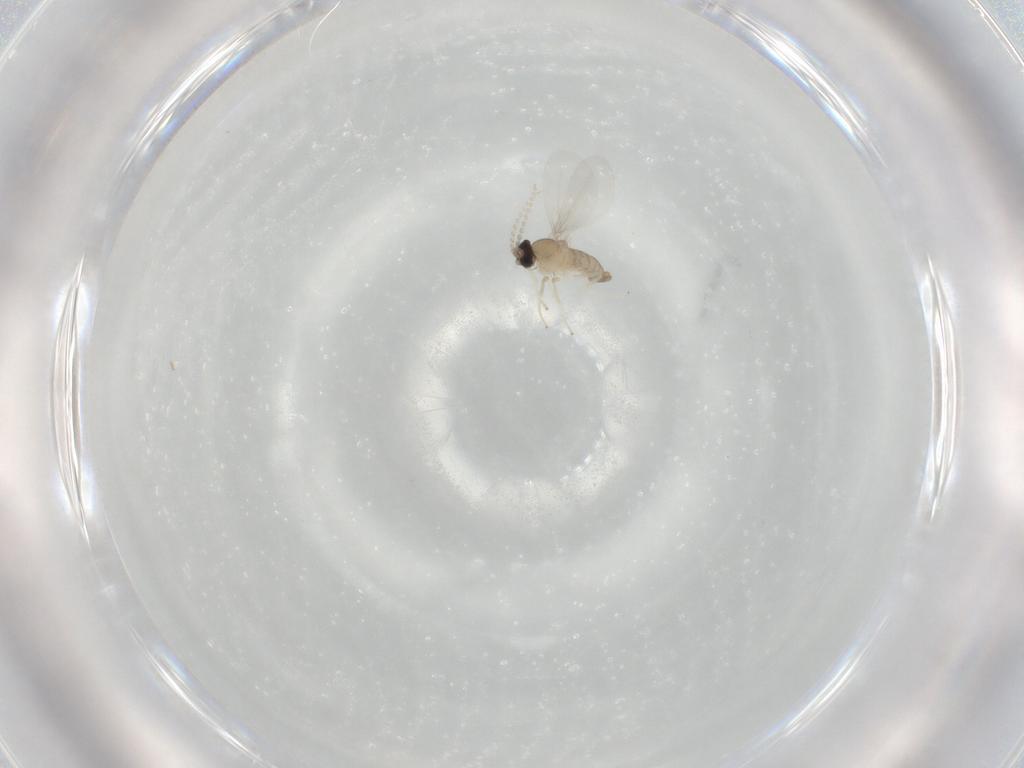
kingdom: Animalia
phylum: Arthropoda
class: Insecta
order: Diptera
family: Cecidomyiidae
